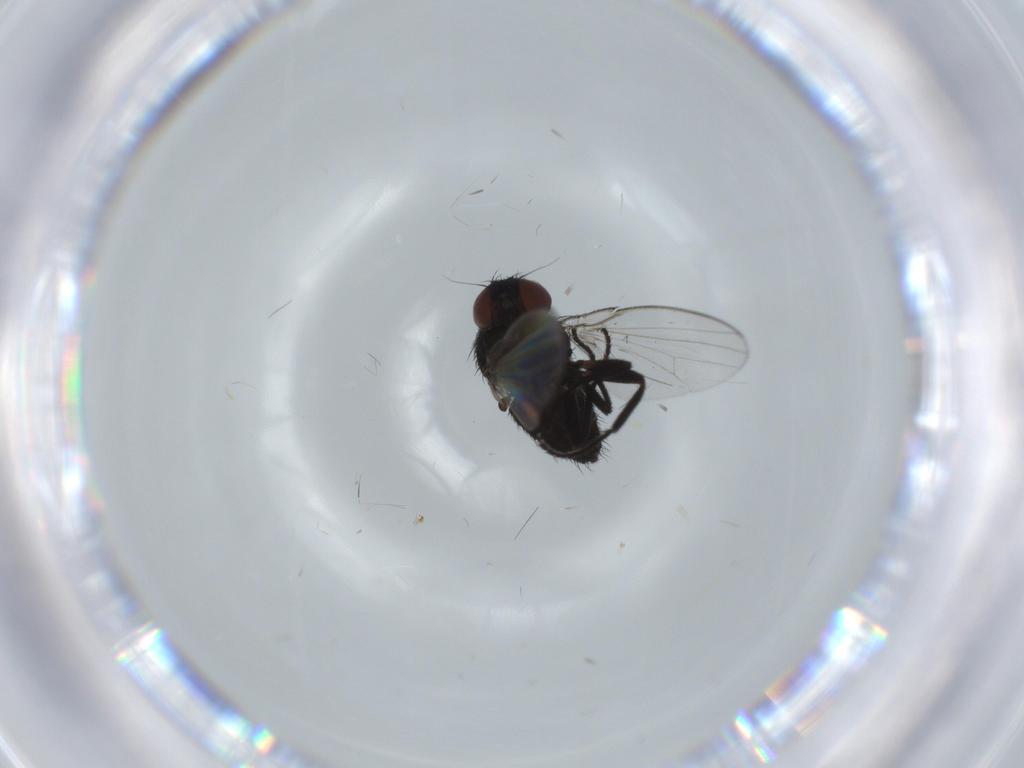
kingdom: Animalia
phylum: Arthropoda
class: Insecta
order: Diptera
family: Milichiidae
